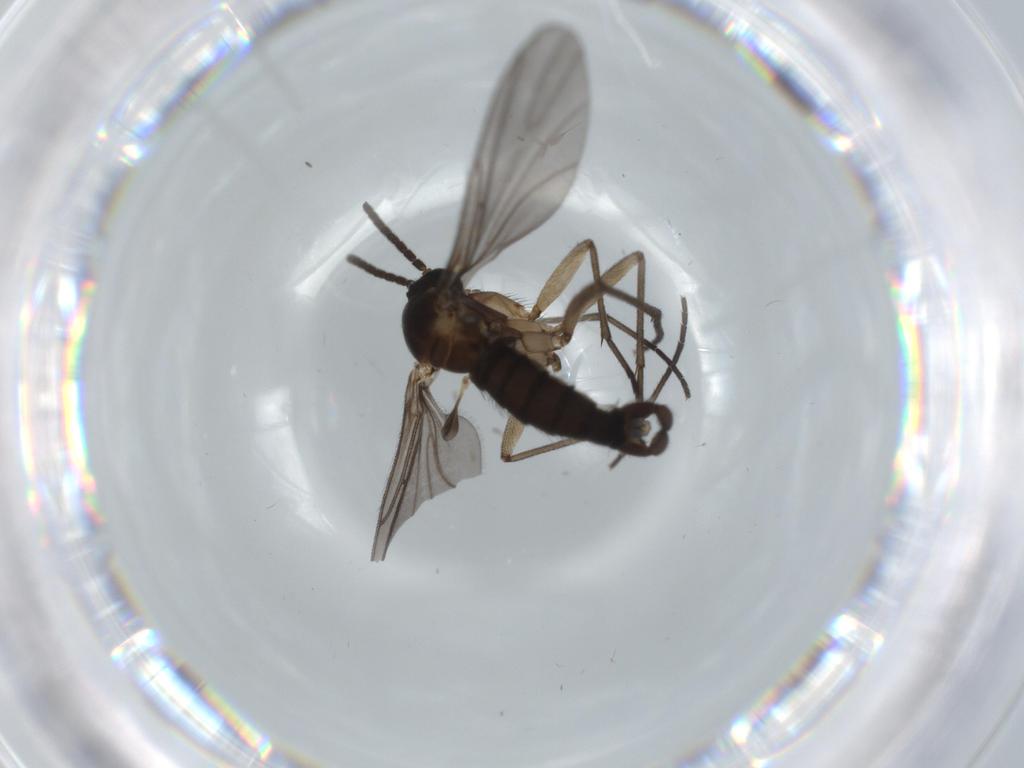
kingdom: Animalia
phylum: Arthropoda
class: Insecta
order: Diptera
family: Sciaridae
